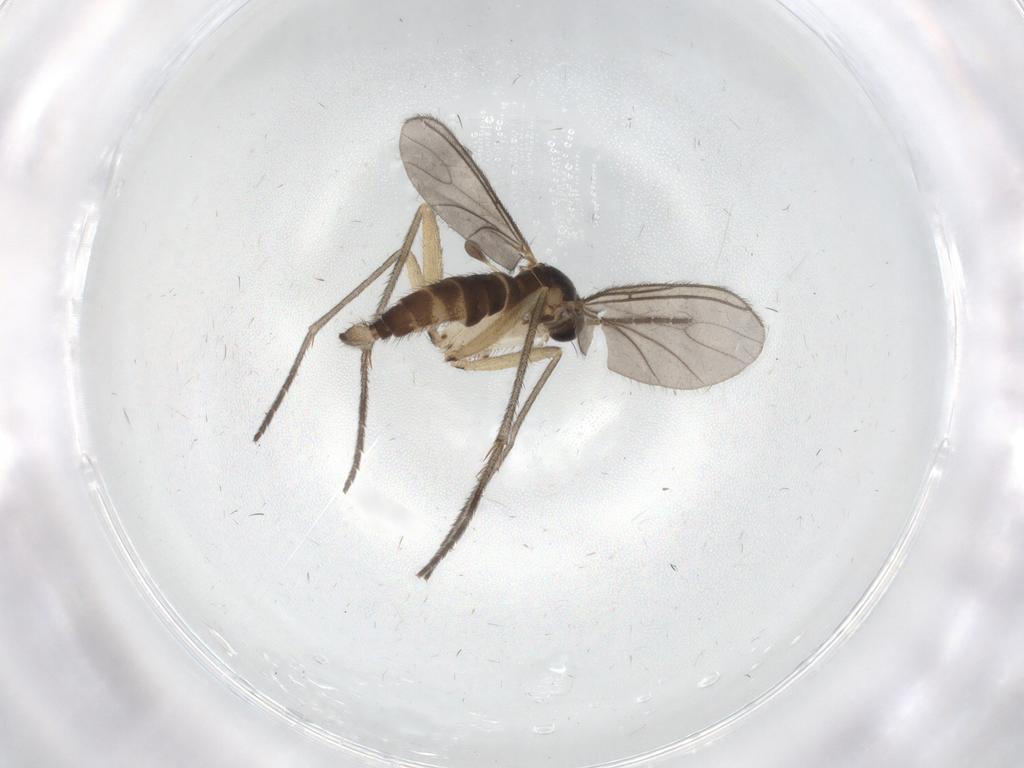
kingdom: Animalia
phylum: Arthropoda
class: Insecta
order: Diptera
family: Sciaridae
